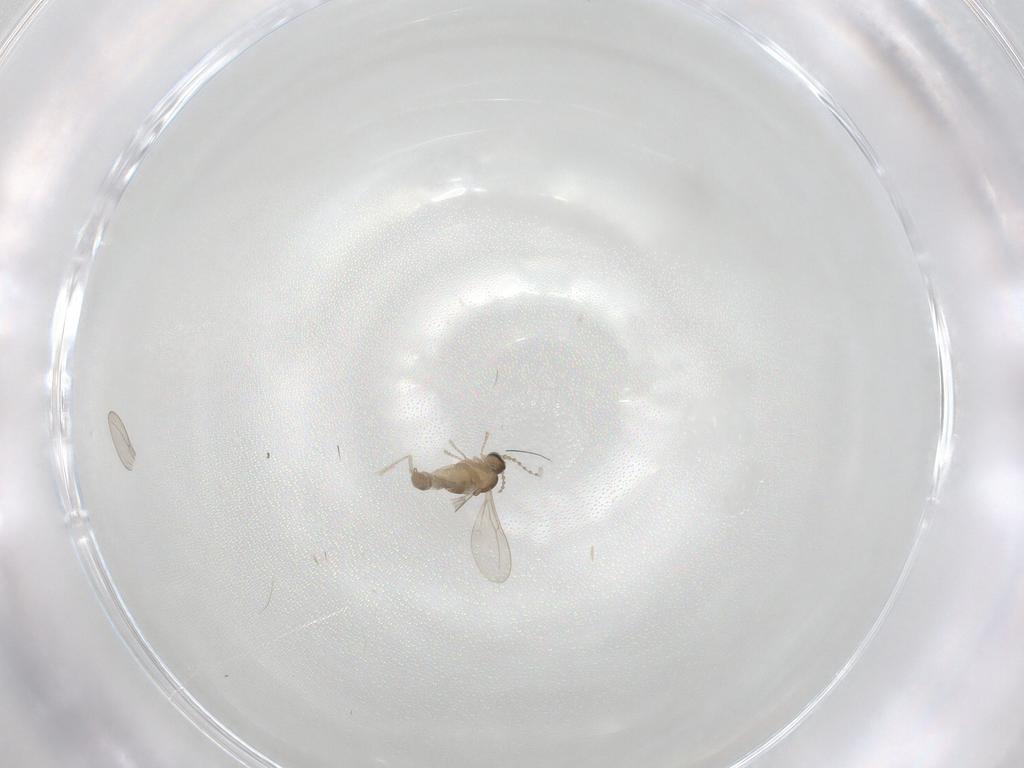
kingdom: Animalia
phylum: Arthropoda
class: Insecta
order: Diptera
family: Cecidomyiidae
